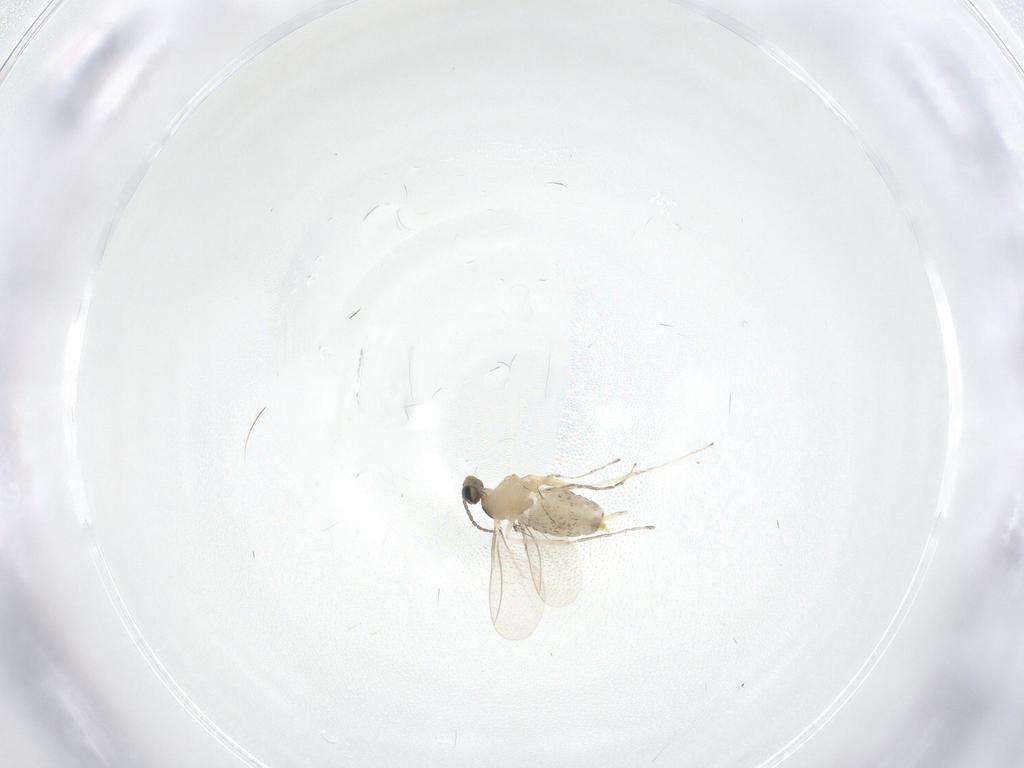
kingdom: Animalia
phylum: Arthropoda
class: Insecta
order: Diptera
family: Cecidomyiidae
